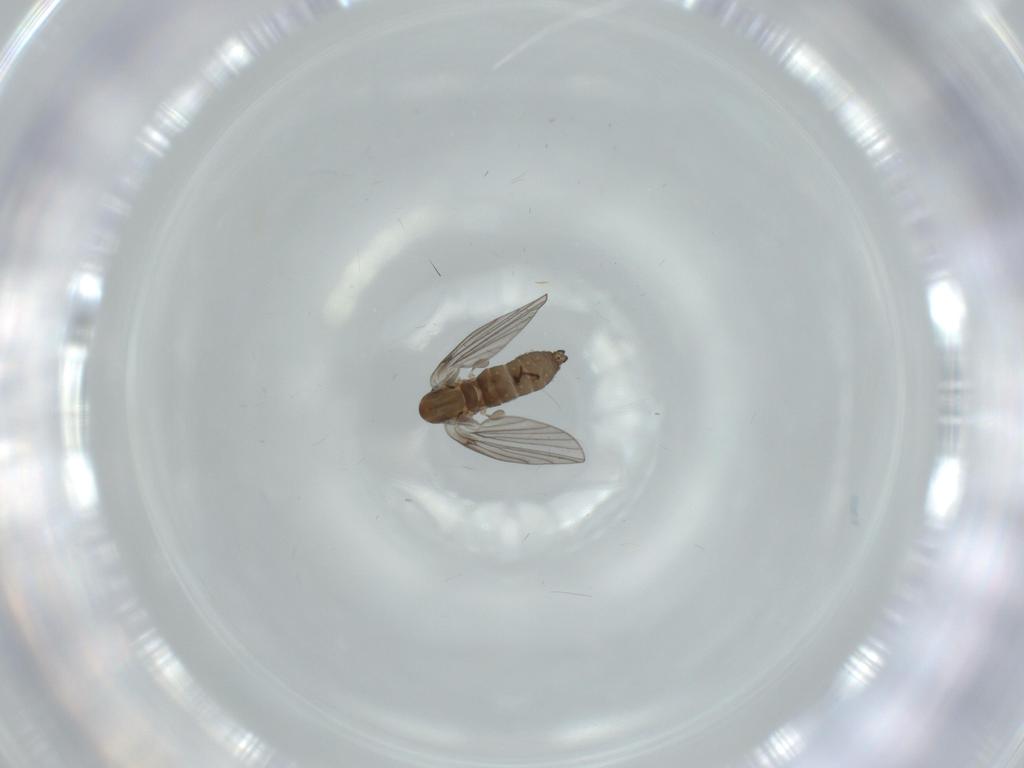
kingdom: Animalia
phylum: Arthropoda
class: Insecta
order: Diptera
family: Psychodidae
